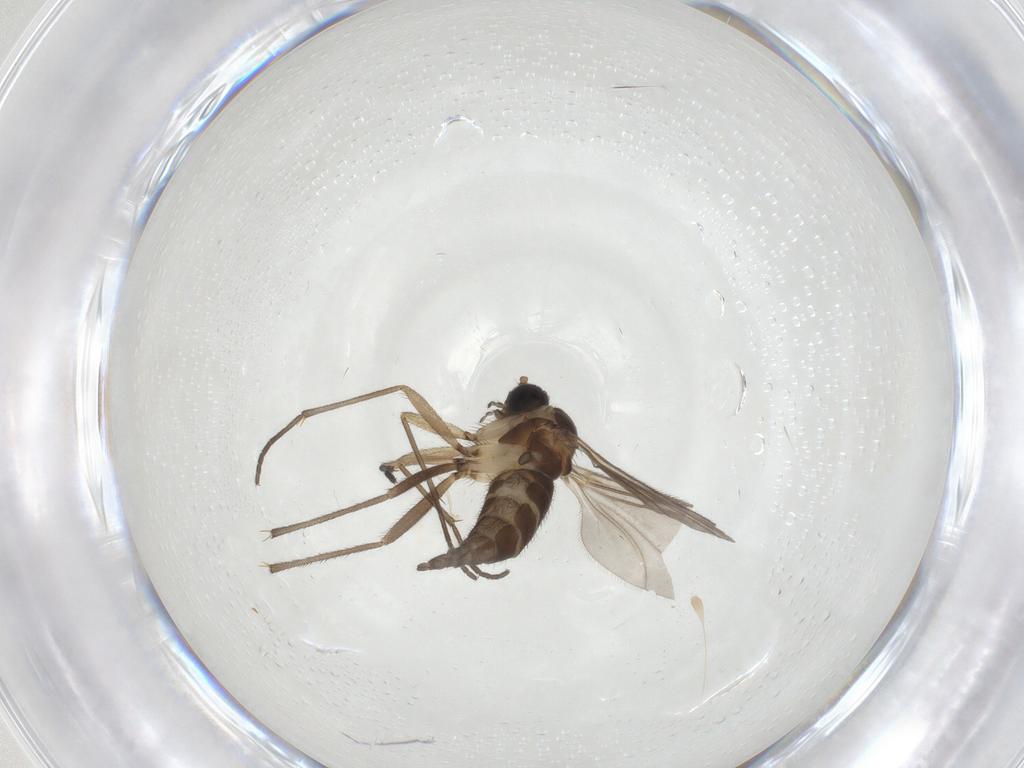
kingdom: Animalia
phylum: Arthropoda
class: Insecta
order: Diptera
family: Sciaridae
